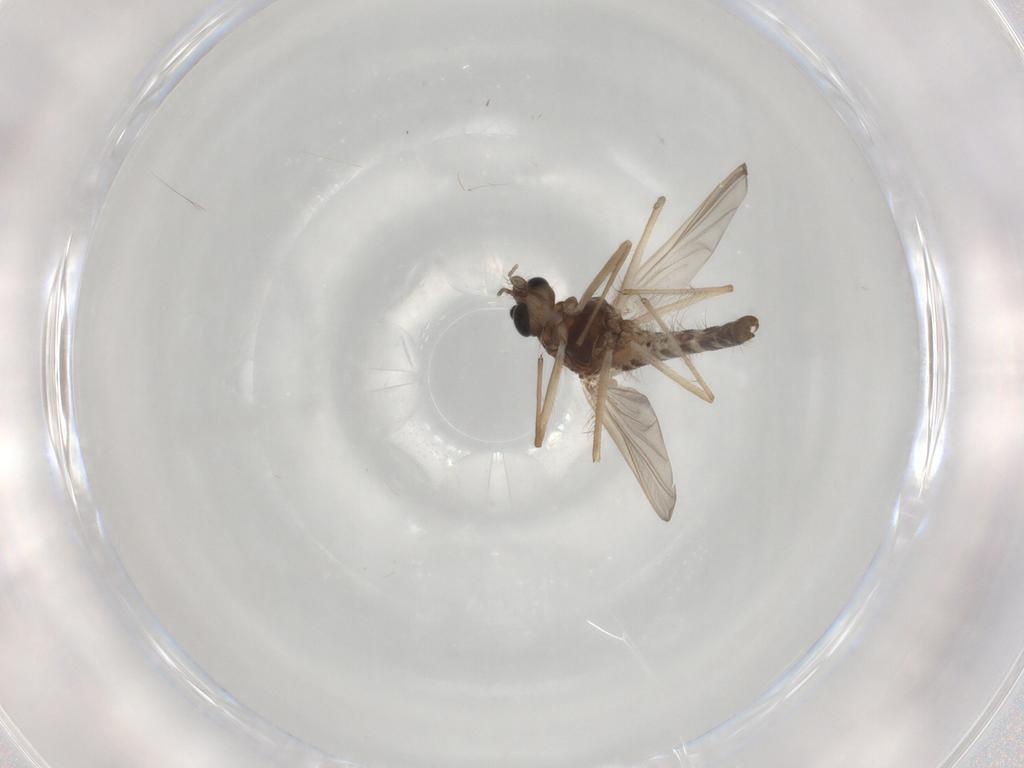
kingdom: Animalia
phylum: Arthropoda
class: Insecta
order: Diptera
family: Chironomidae
